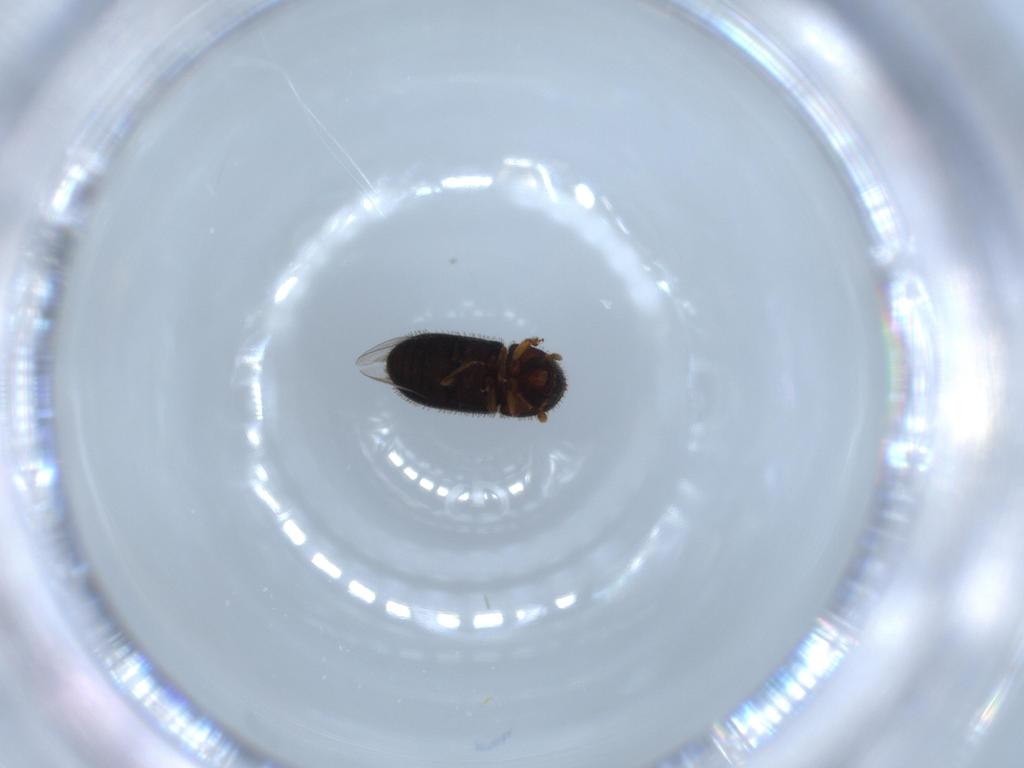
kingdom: Animalia
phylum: Arthropoda
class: Insecta
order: Coleoptera
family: Curculionidae
